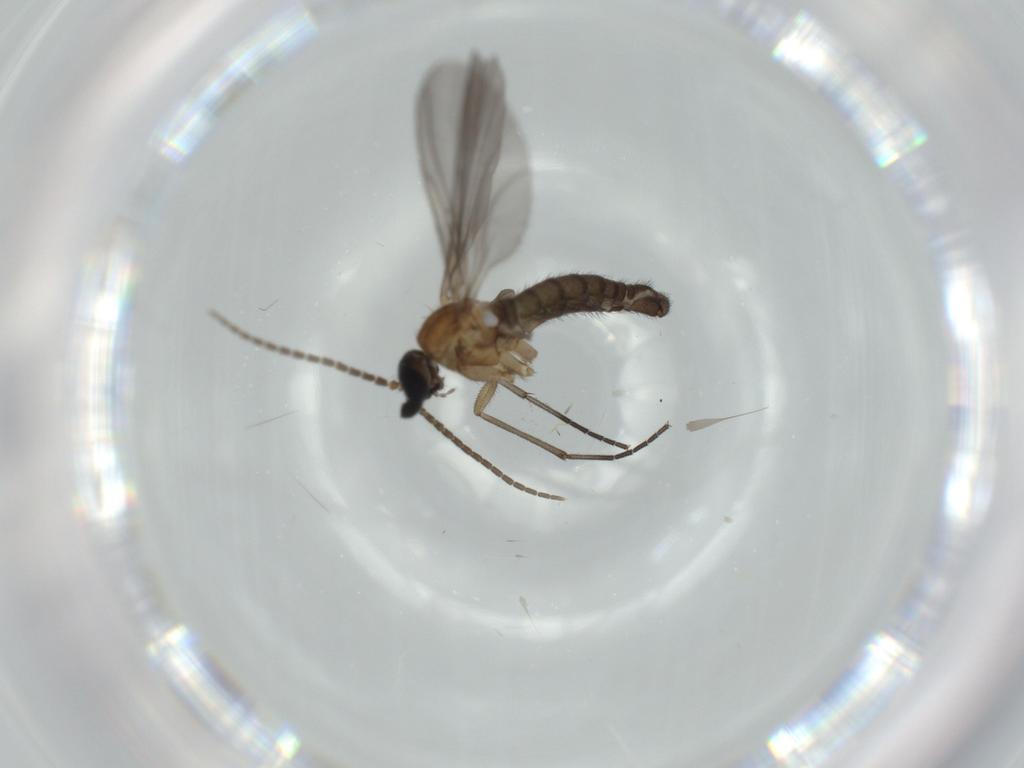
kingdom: Animalia
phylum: Arthropoda
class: Insecta
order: Diptera
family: Sciaridae
